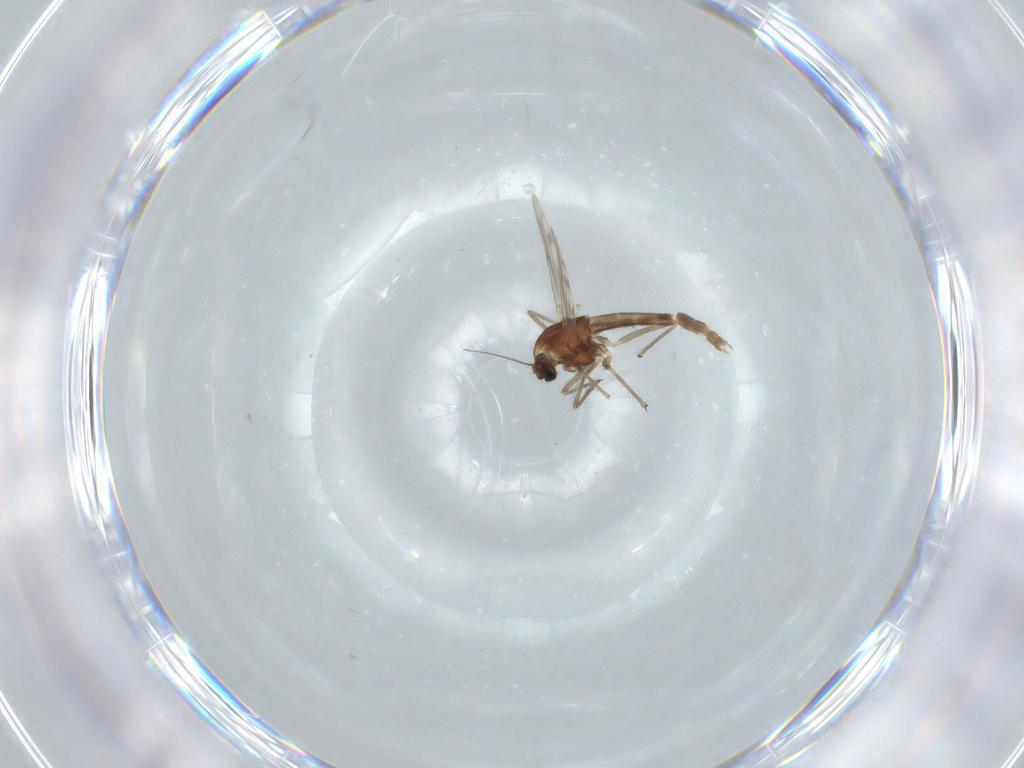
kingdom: Animalia
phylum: Arthropoda
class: Insecta
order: Diptera
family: Chironomidae
